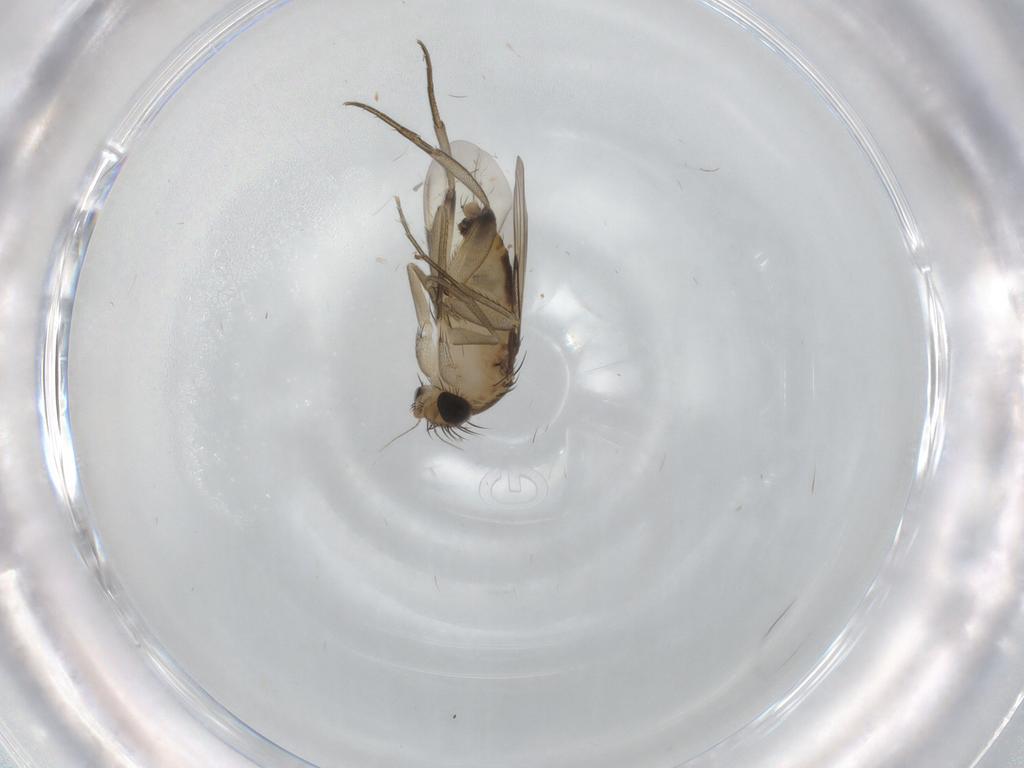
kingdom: Animalia
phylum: Arthropoda
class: Insecta
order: Diptera
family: Phoridae
